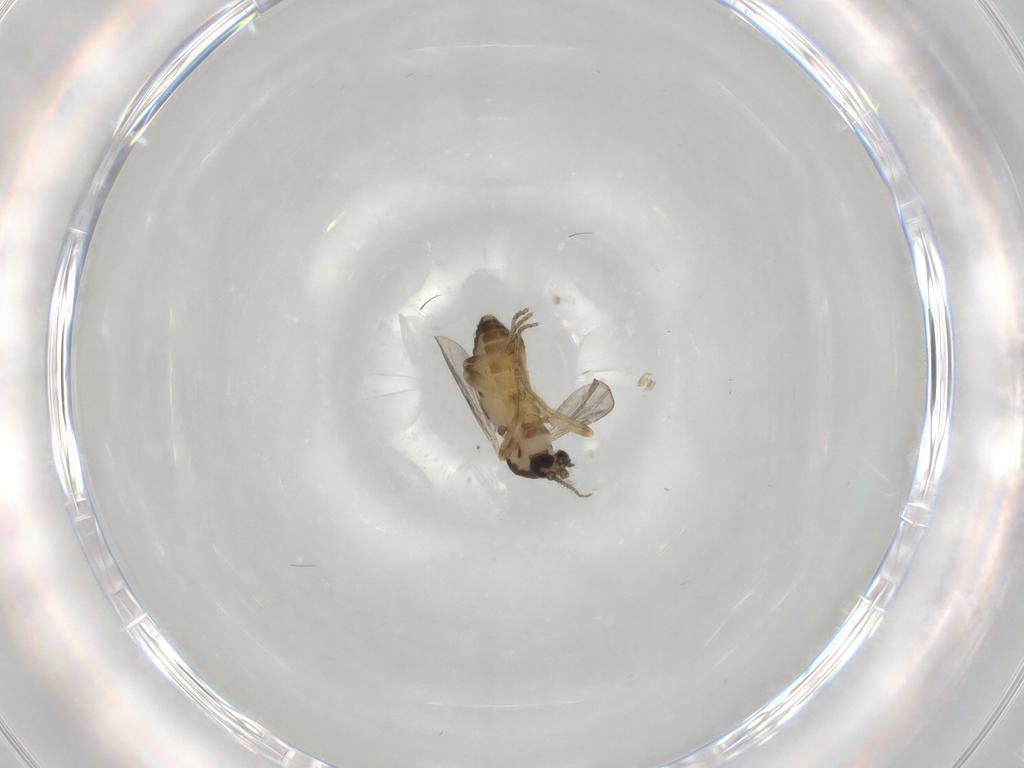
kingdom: Animalia
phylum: Arthropoda
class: Insecta
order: Diptera
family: Ceratopogonidae
